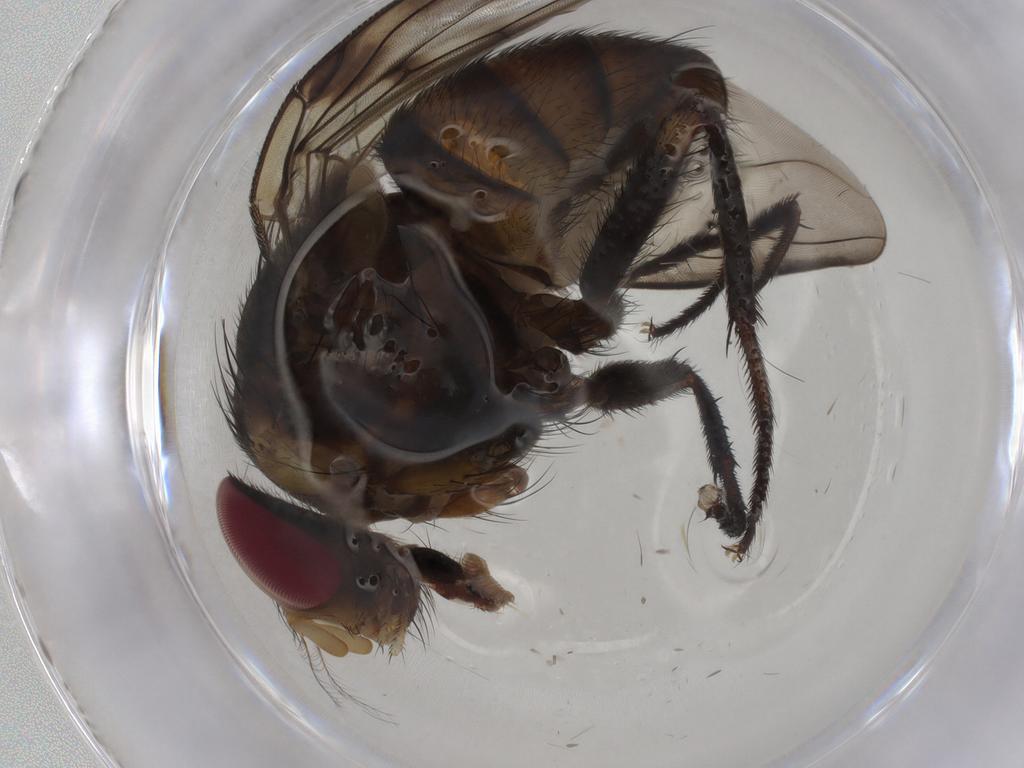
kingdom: Animalia
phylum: Arthropoda
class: Insecta
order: Diptera
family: Muscidae
